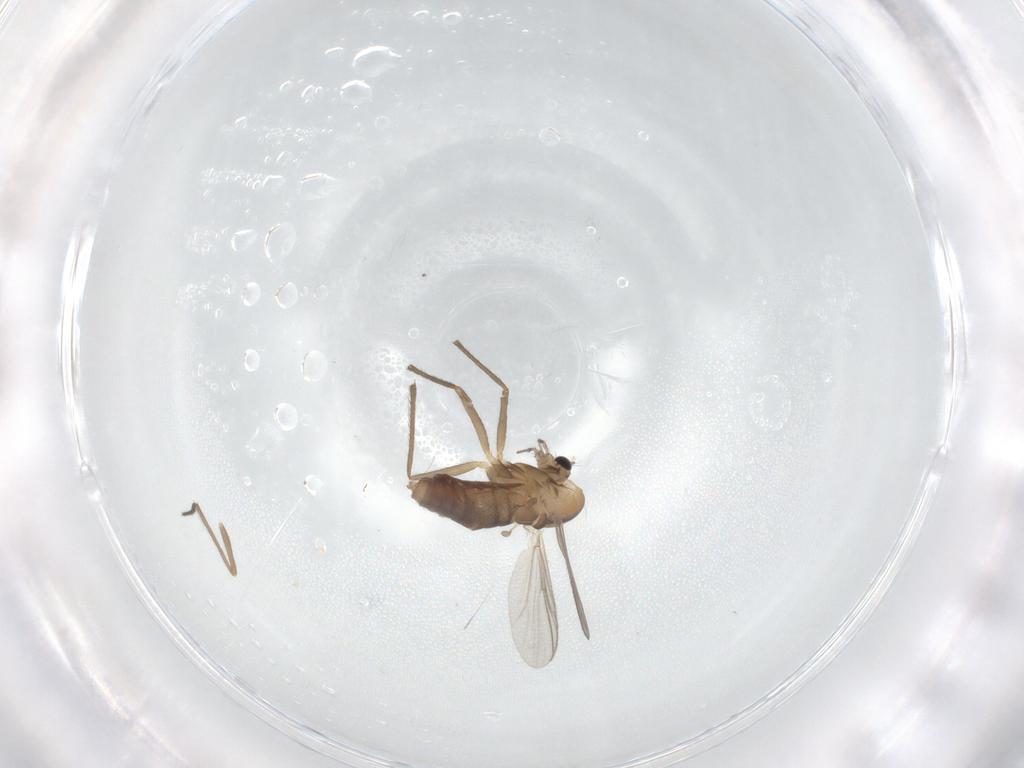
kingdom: Animalia
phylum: Arthropoda
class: Insecta
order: Diptera
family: Chironomidae
